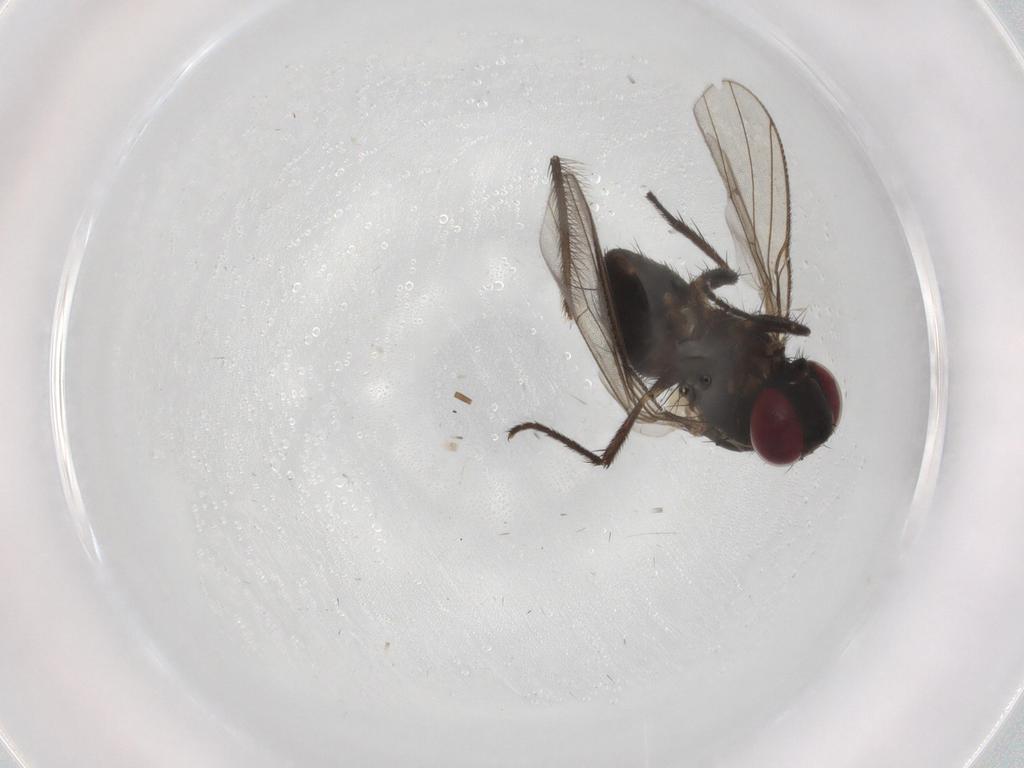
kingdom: Animalia
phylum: Arthropoda
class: Insecta
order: Diptera
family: Muscidae
